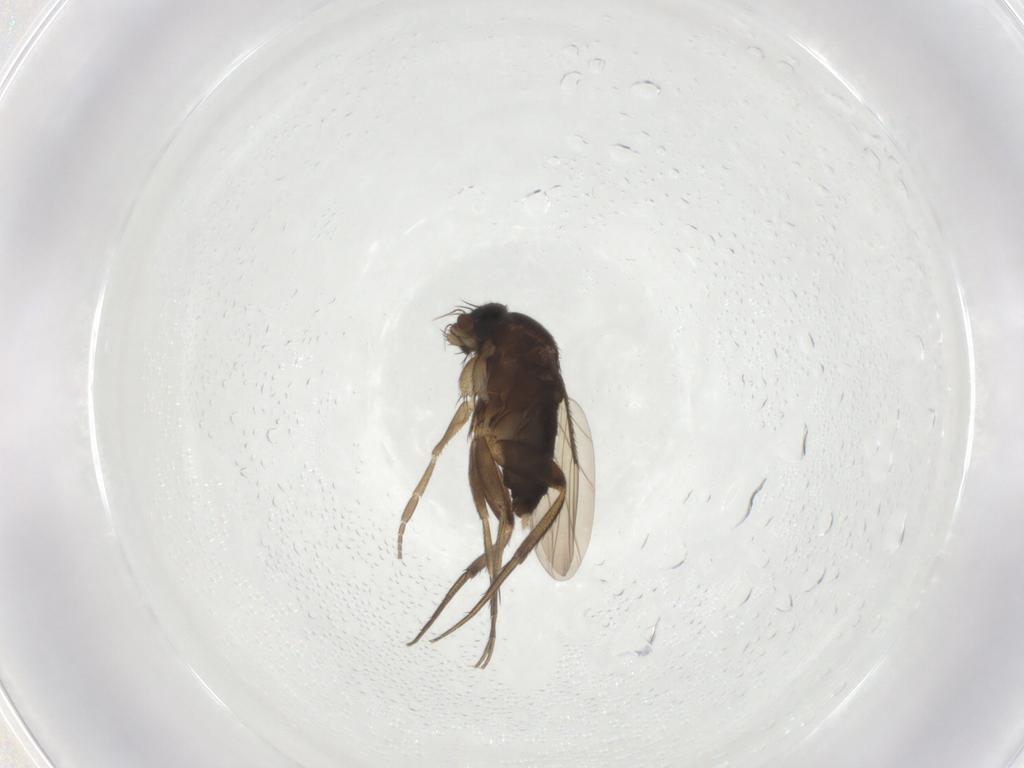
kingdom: Animalia
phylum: Arthropoda
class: Insecta
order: Diptera
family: Phoridae
